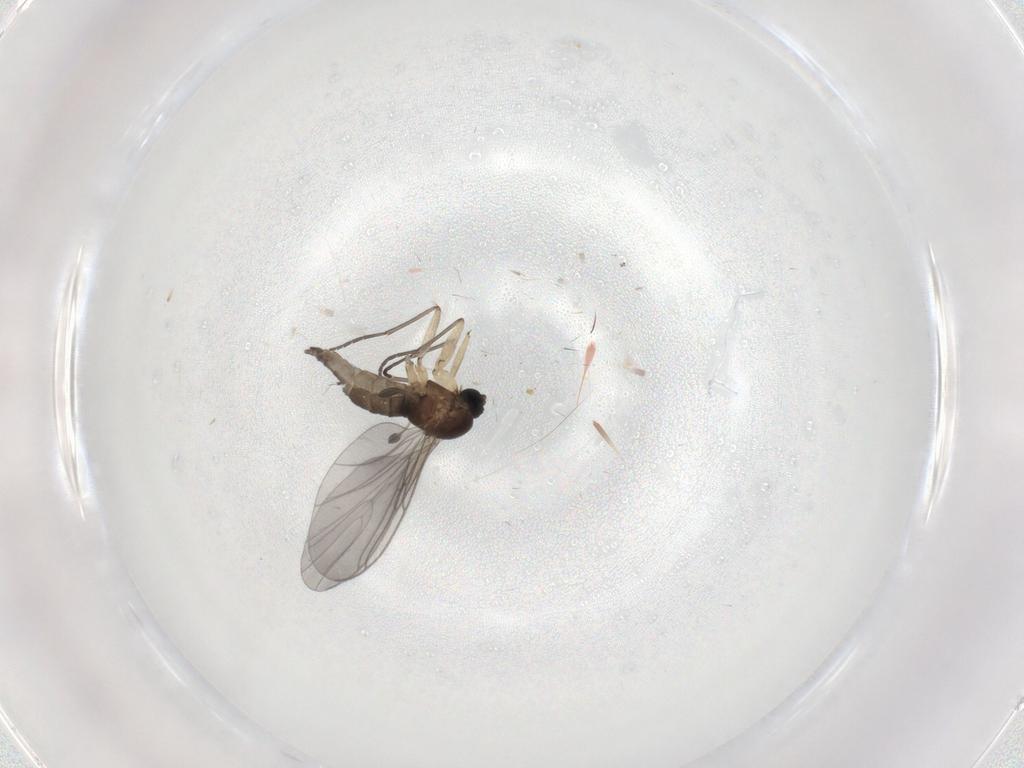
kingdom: Animalia
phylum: Arthropoda
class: Insecta
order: Diptera
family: Sciaridae
